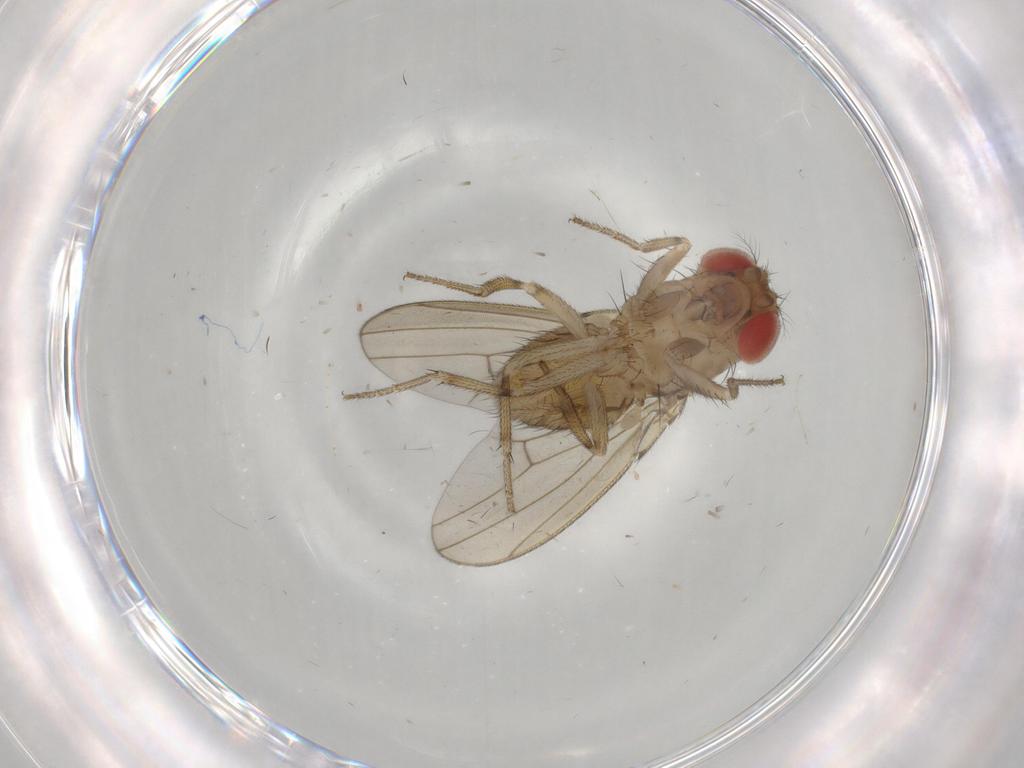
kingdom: Animalia
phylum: Arthropoda
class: Insecta
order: Diptera
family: Drosophilidae
